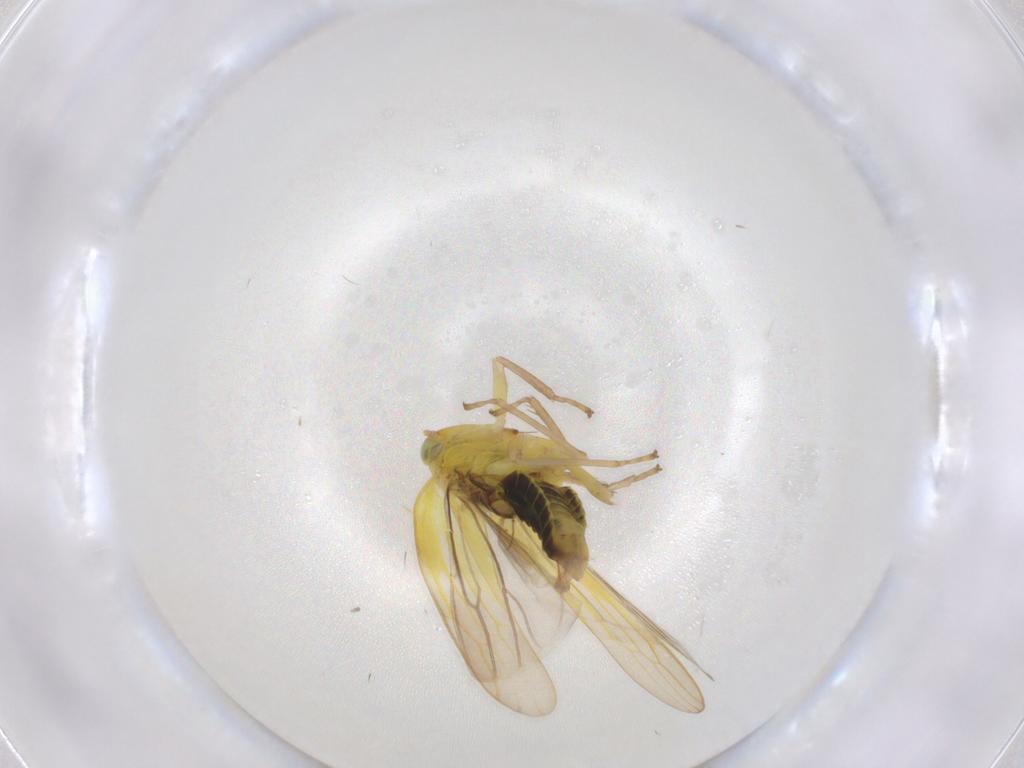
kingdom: Animalia
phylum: Arthropoda
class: Insecta
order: Hemiptera
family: Cicadellidae
